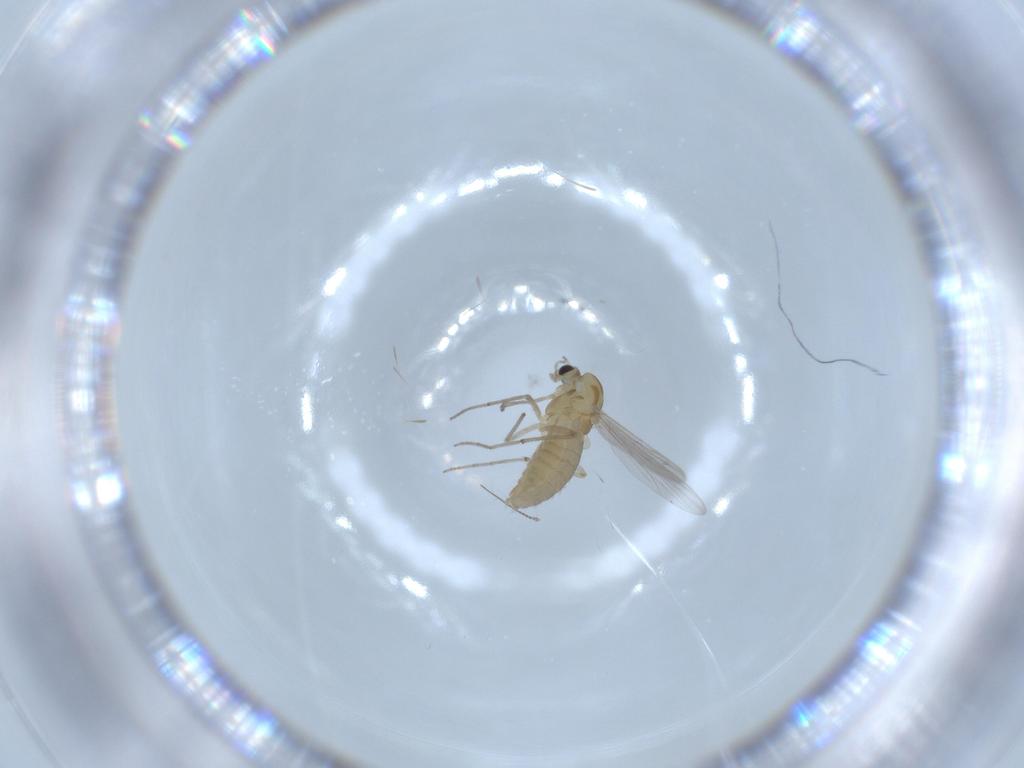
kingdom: Animalia
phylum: Arthropoda
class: Insecta
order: Diptera
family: Chironomidae
